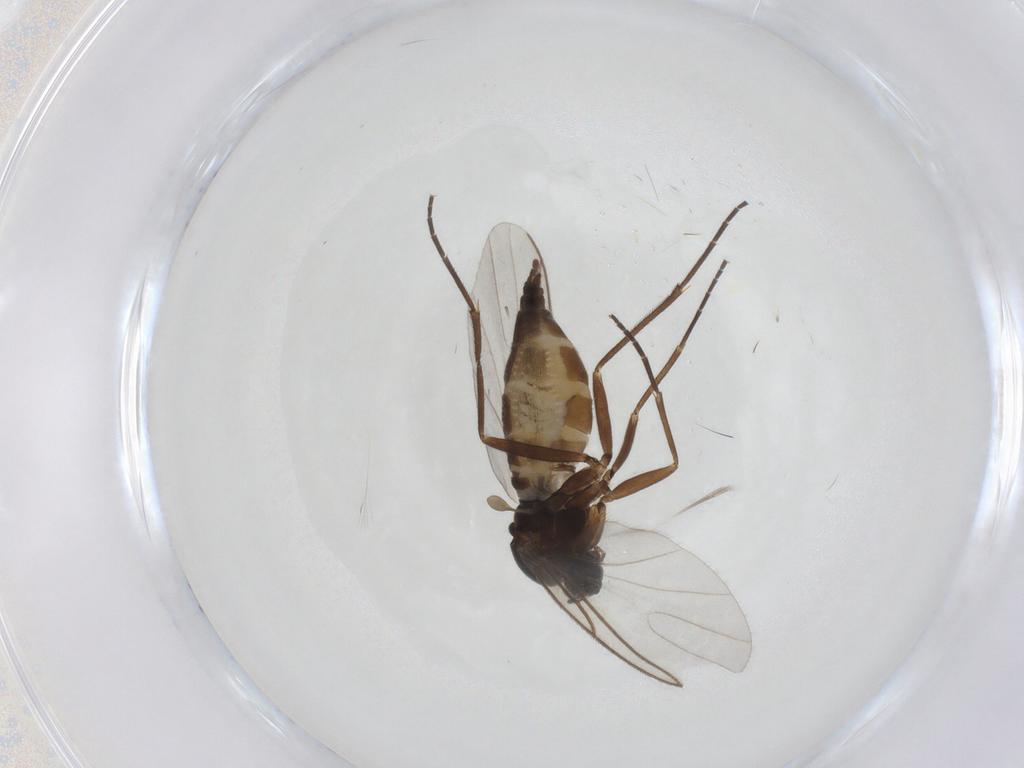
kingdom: Animalia
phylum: Arthropoda
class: Insecta
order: Diptera
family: Sciaridae
